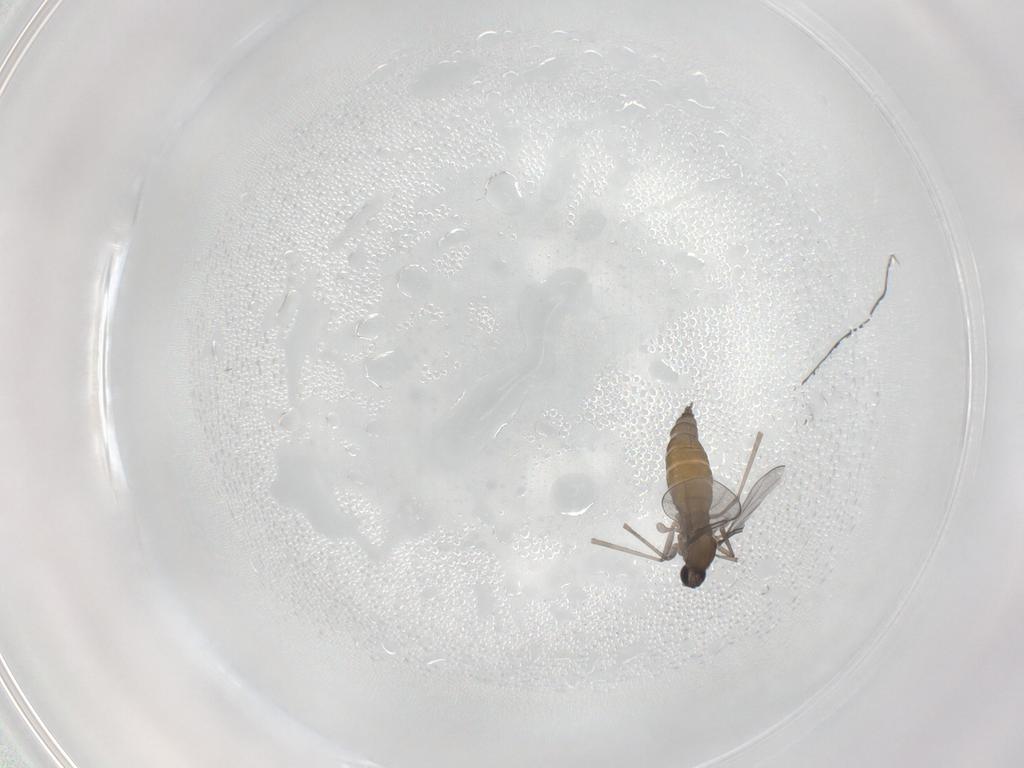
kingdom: Animalia
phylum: Arthropoda
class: Insecta
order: Diptera
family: Cecidomyiidae
